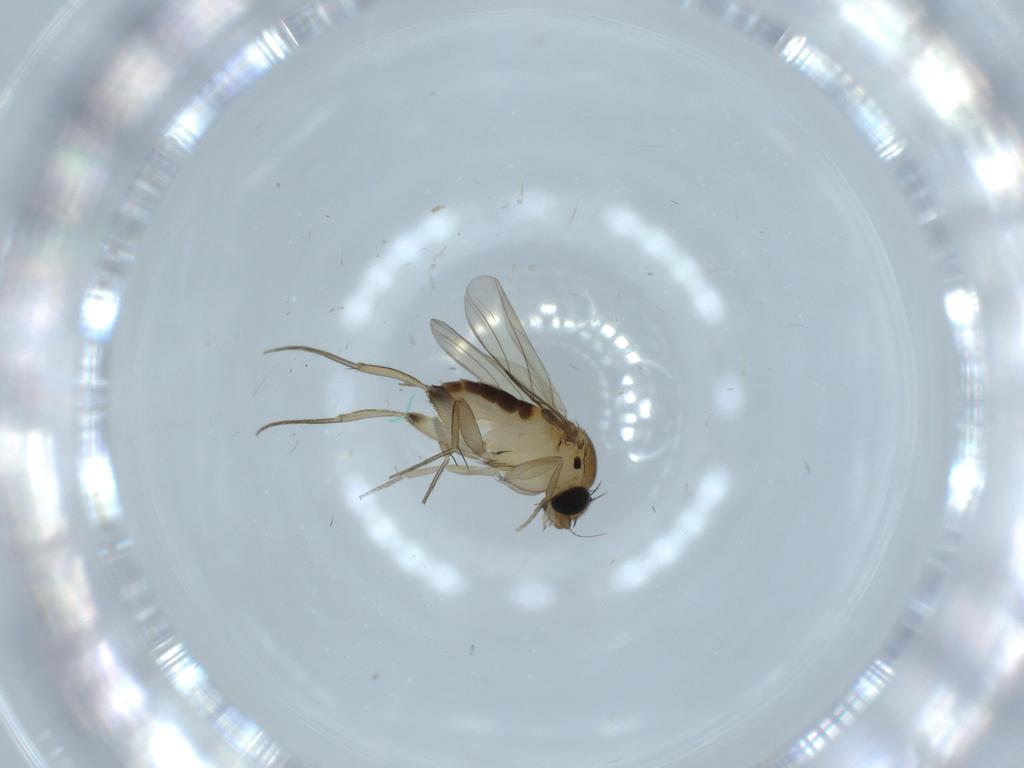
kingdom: Animalia
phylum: Arthropoda
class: Insecta
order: Diptera
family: Phoridae
